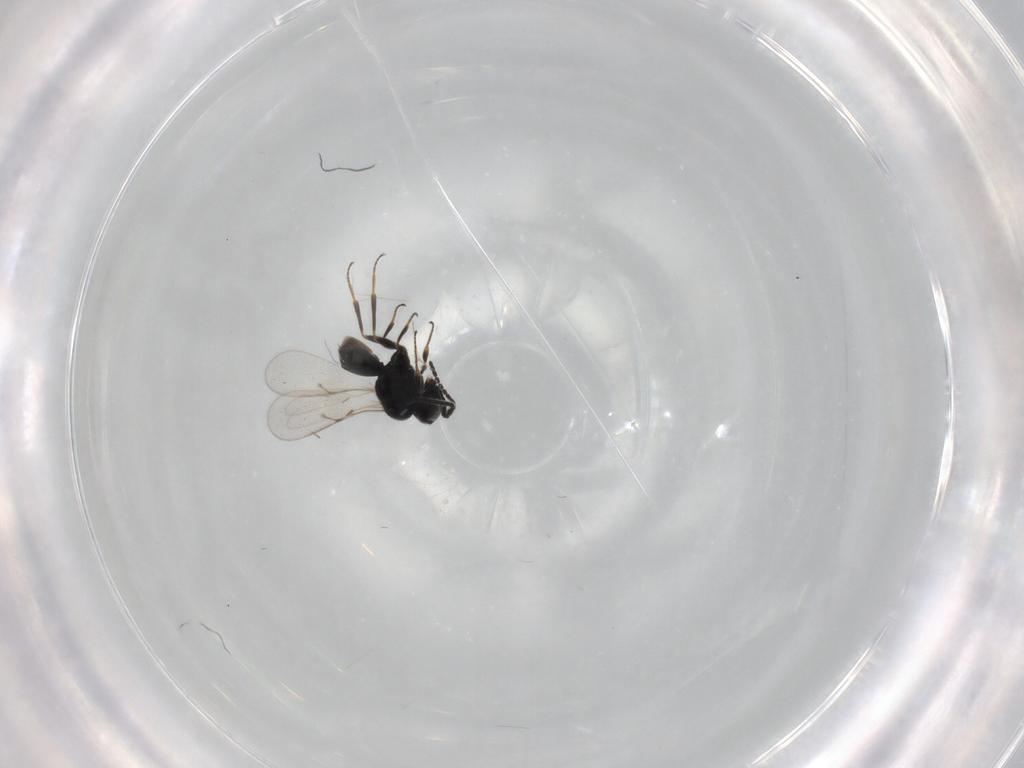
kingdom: Animalia
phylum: Arthropoda
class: Insecta
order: Hymenoptera
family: Scelionidae
